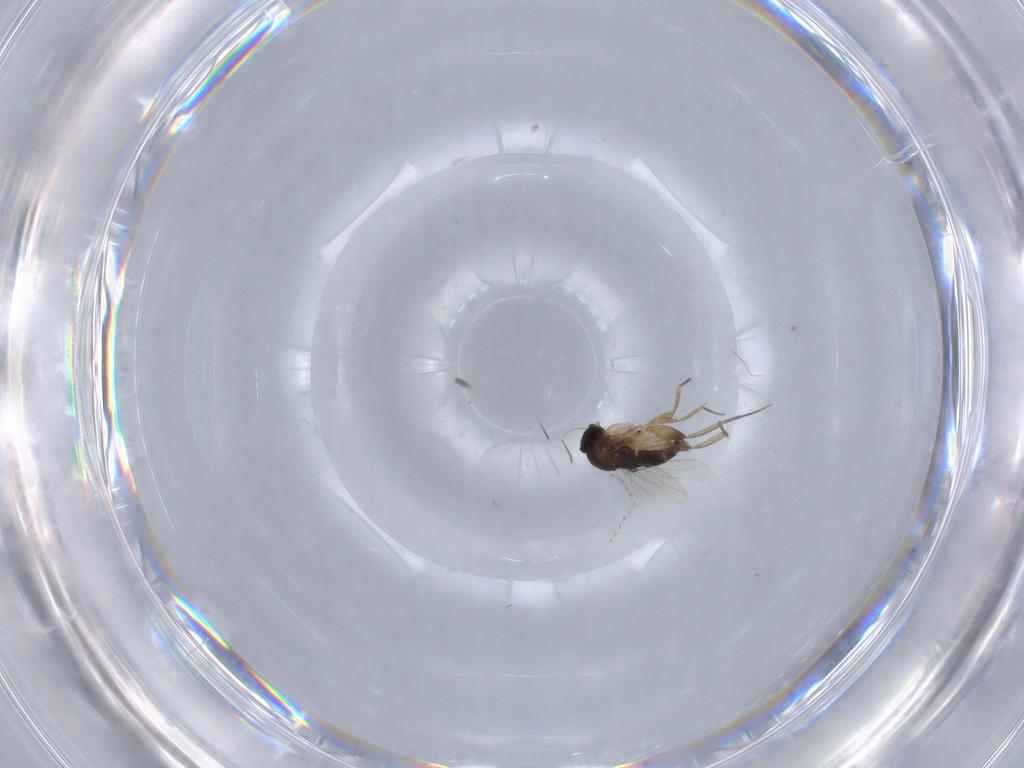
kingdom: Animalia
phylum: Arthropoda
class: Insecta
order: Diptera
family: Phoridae
